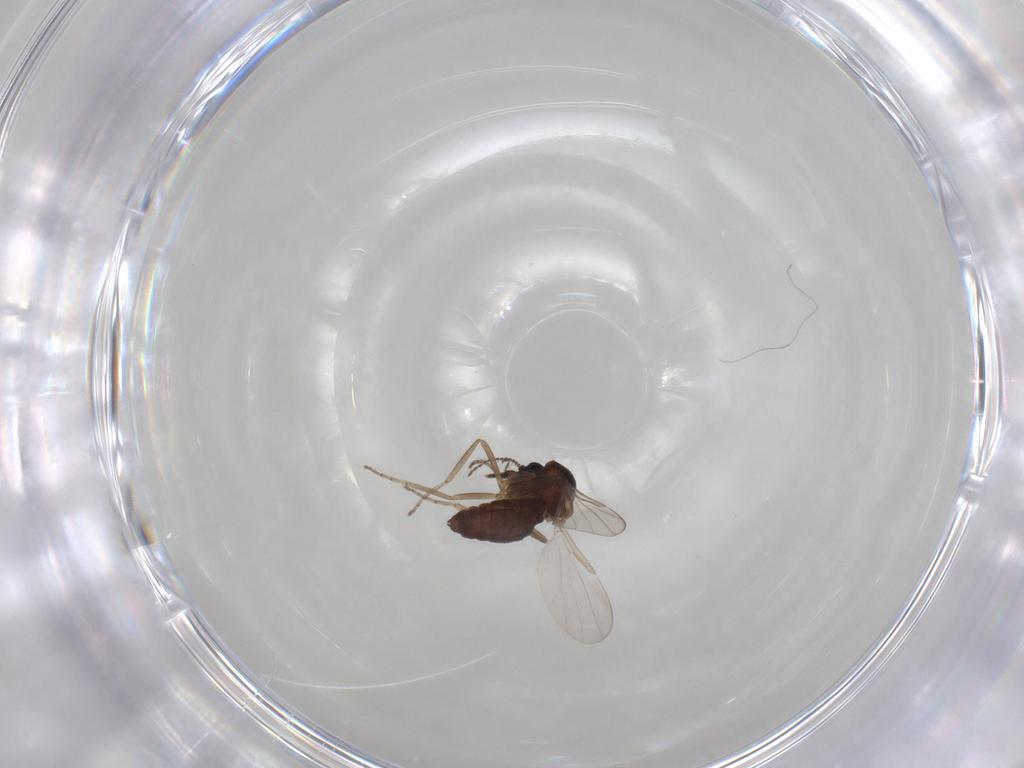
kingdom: Animalia
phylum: Arthropoda
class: Insecta
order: Diptera
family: Ceratopogonidae
